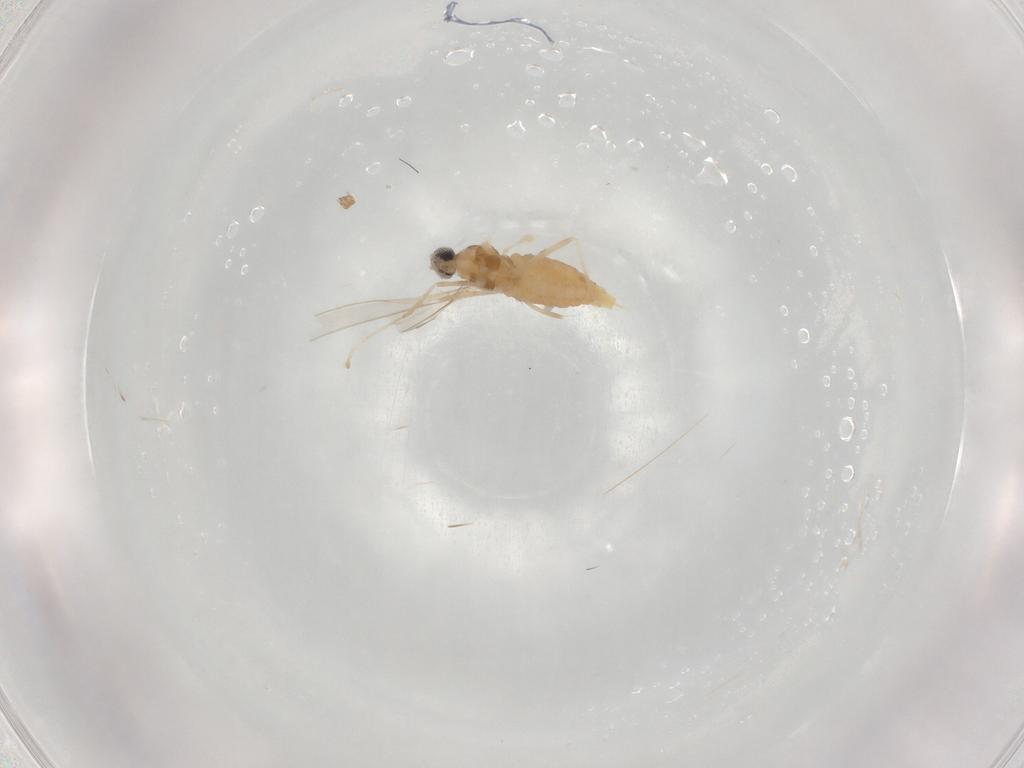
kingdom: Animalia
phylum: Arthropoda
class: Insecta
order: Diptera
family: Cecidomyiidae
